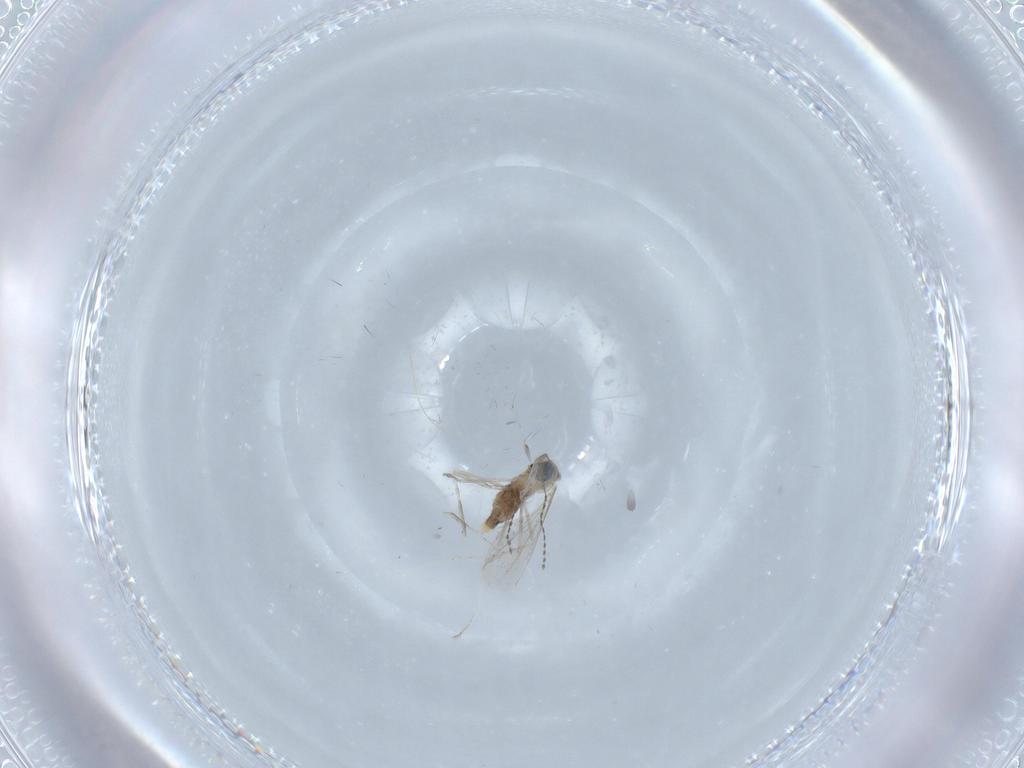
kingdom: Animalia
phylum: Arthropoda
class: Insecta
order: Diptera
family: Cecidomyiidae
